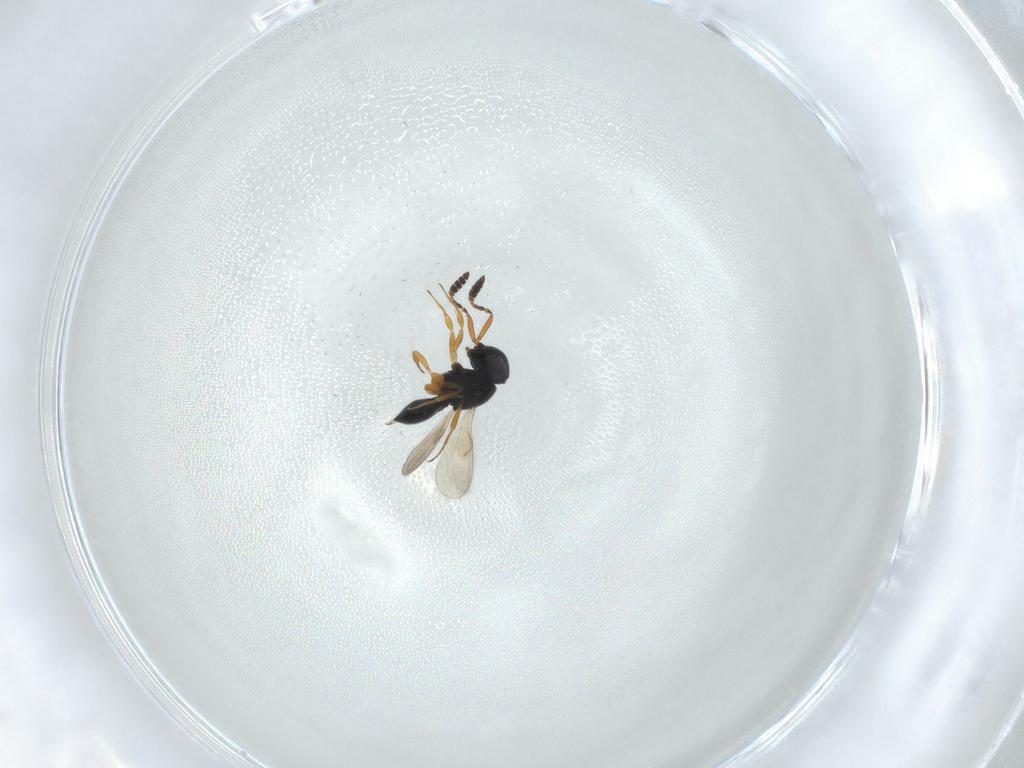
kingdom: Animalia
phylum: Arthropoda
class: Insecta
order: Hymenoptera
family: Scelionidae
